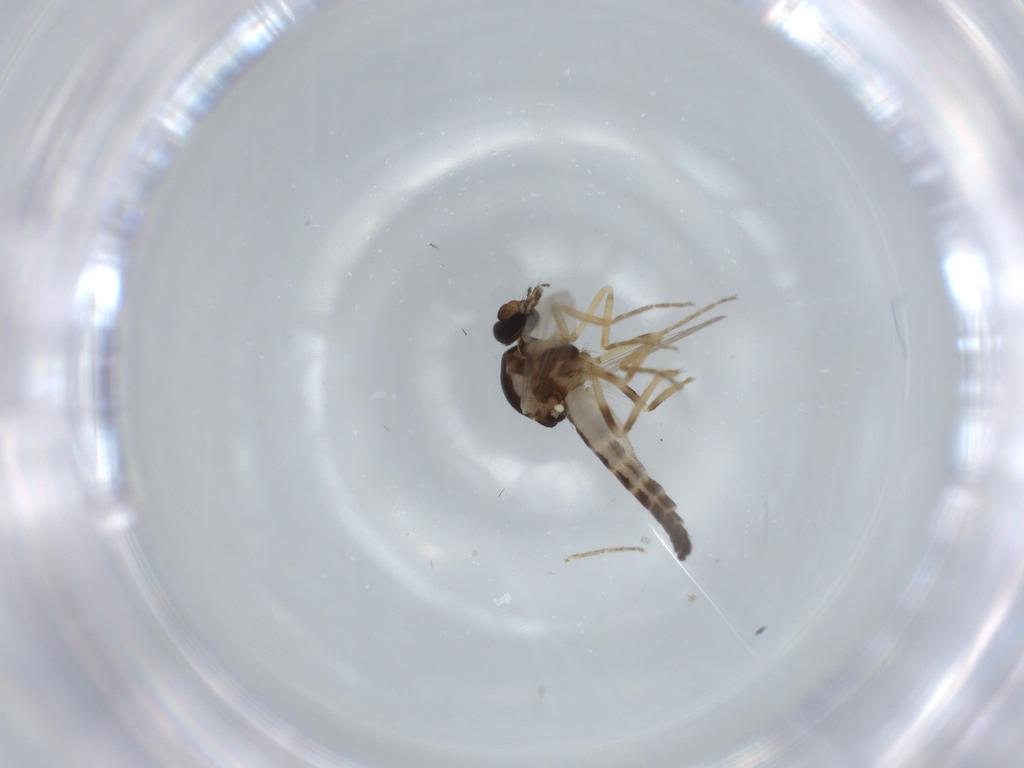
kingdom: Animalia
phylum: Arthropoda
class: Insecta
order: Diptera
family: Ceratopogonidae
